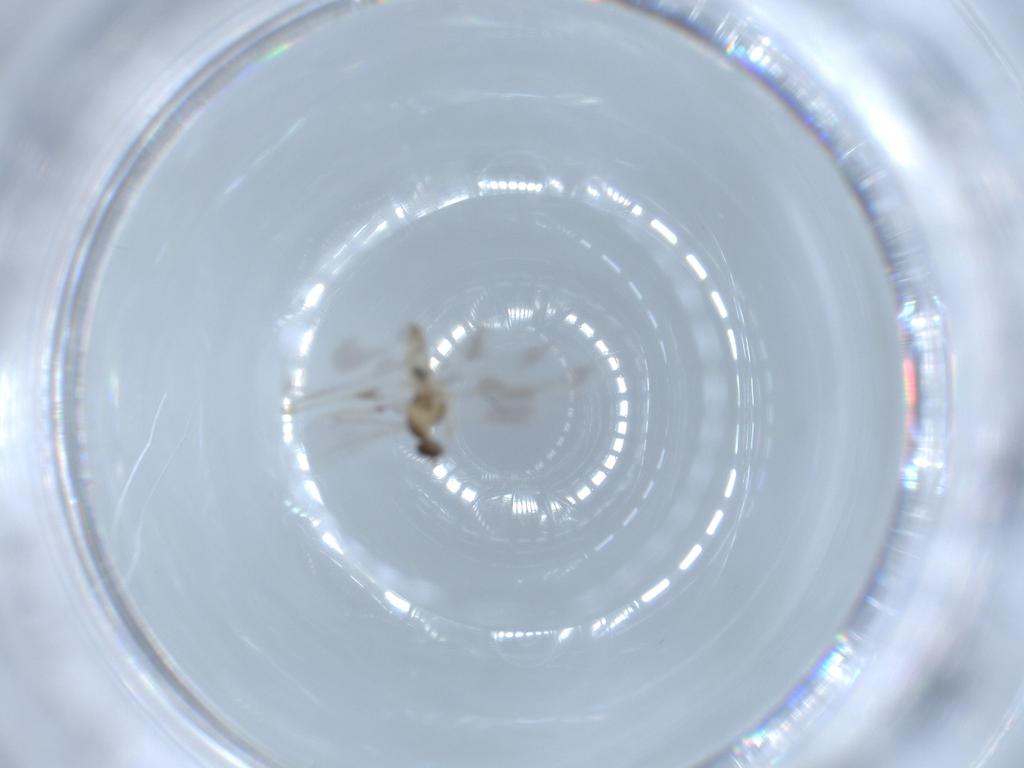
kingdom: Animalia
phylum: Arthropoda
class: Insecta
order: Diptera
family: Cecidomyiidae
